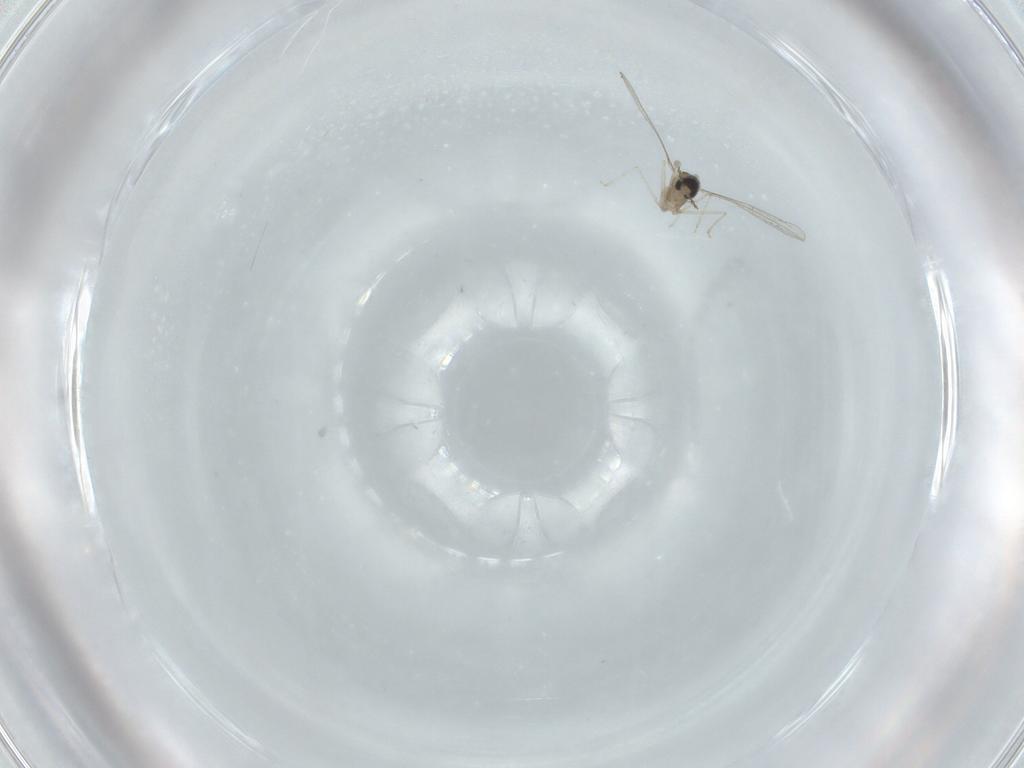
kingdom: Animalia
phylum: Arthropoda
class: Insecta
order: Diptera
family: Cecidomyiidae
